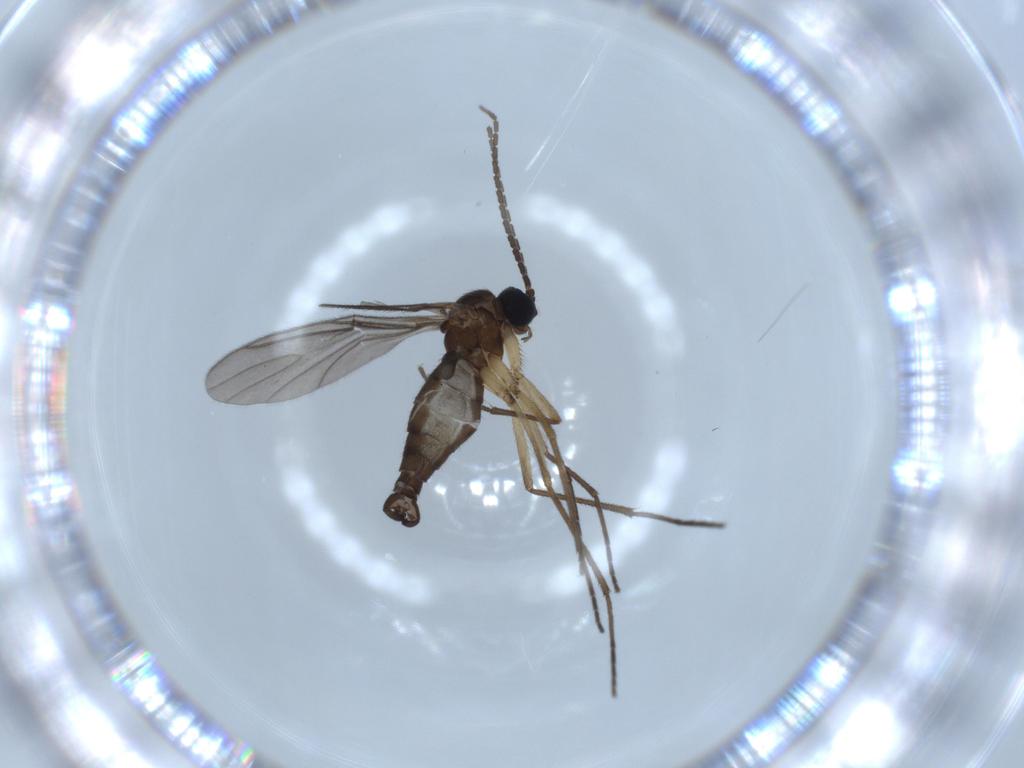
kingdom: Animalia
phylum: Arthropoda
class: Insecta
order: Diptera
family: Sciaridae
